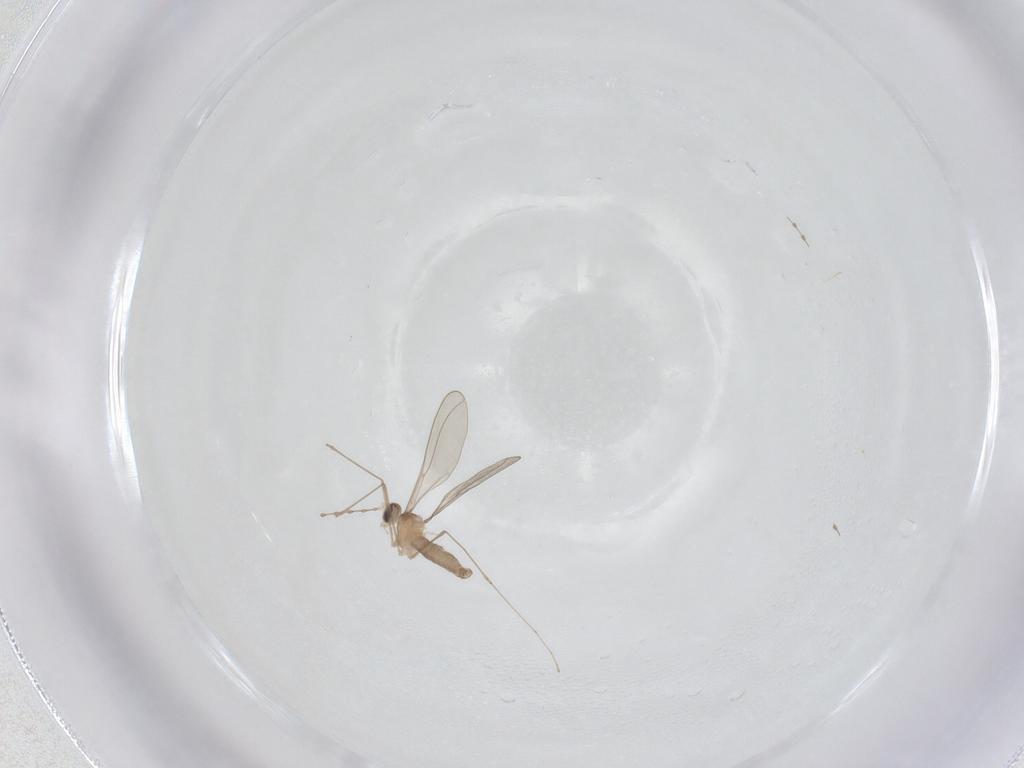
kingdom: Animalia
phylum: Arthropoda
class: Insecta
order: Diptera
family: Cecidomyiidae
